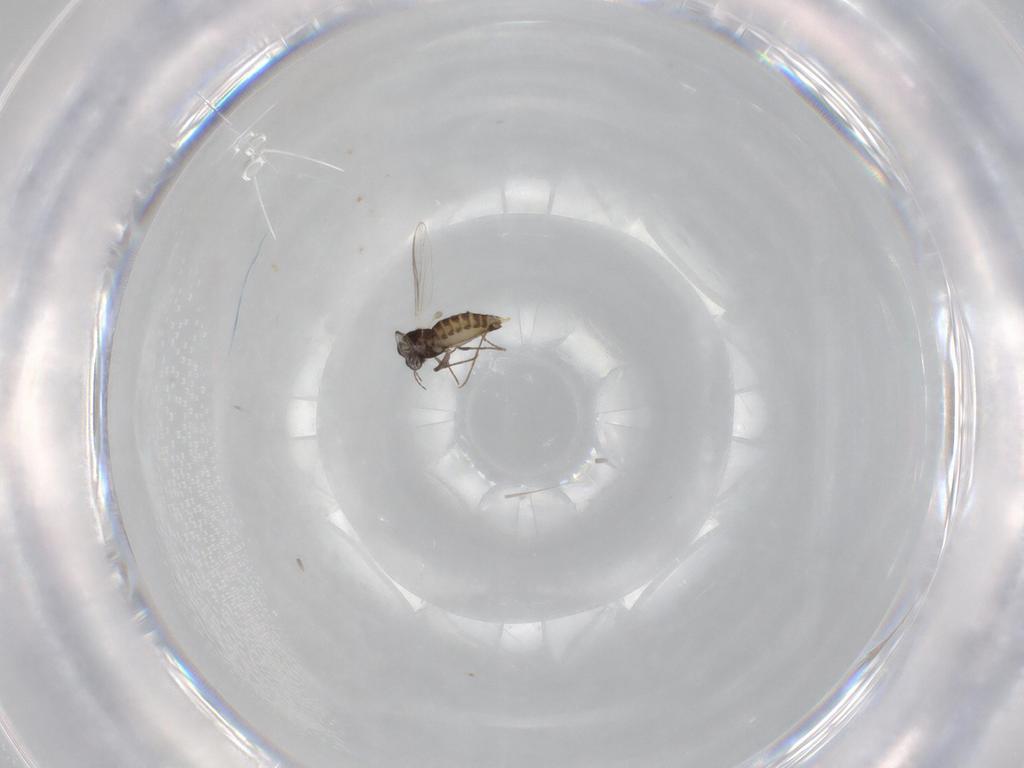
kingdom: Animalia
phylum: Arthropoda
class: Insecta
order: Diptera
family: Chironomidae
